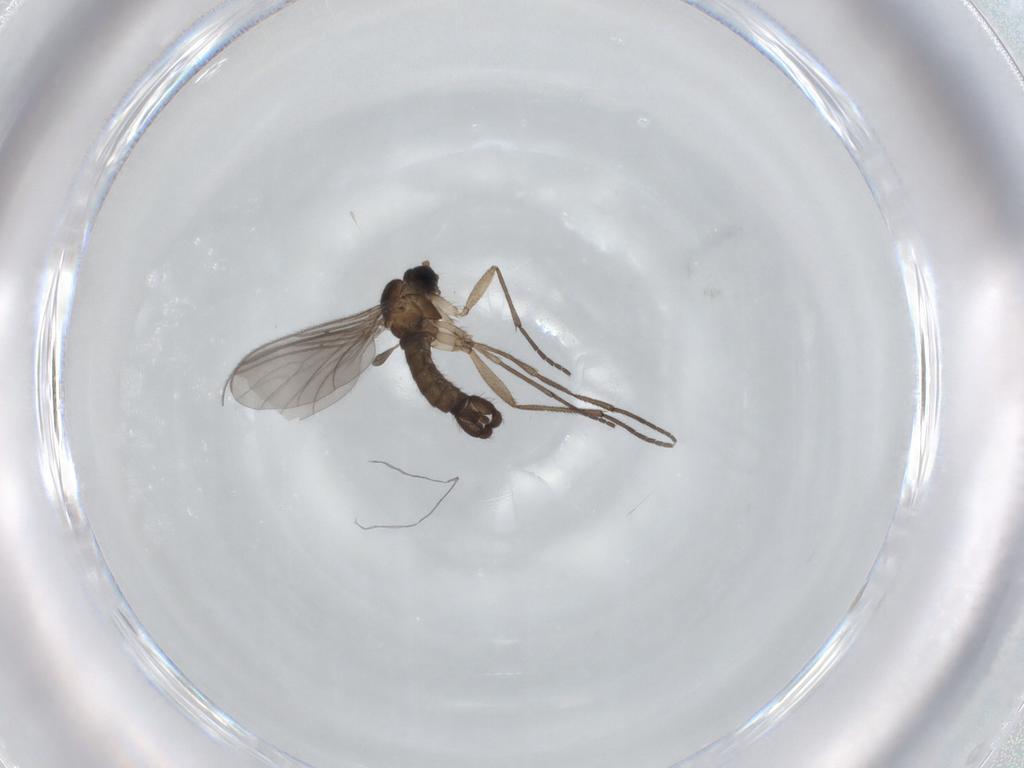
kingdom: Animalia
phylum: Arthropoda
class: Insecta
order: Diptera
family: Sciaridae
